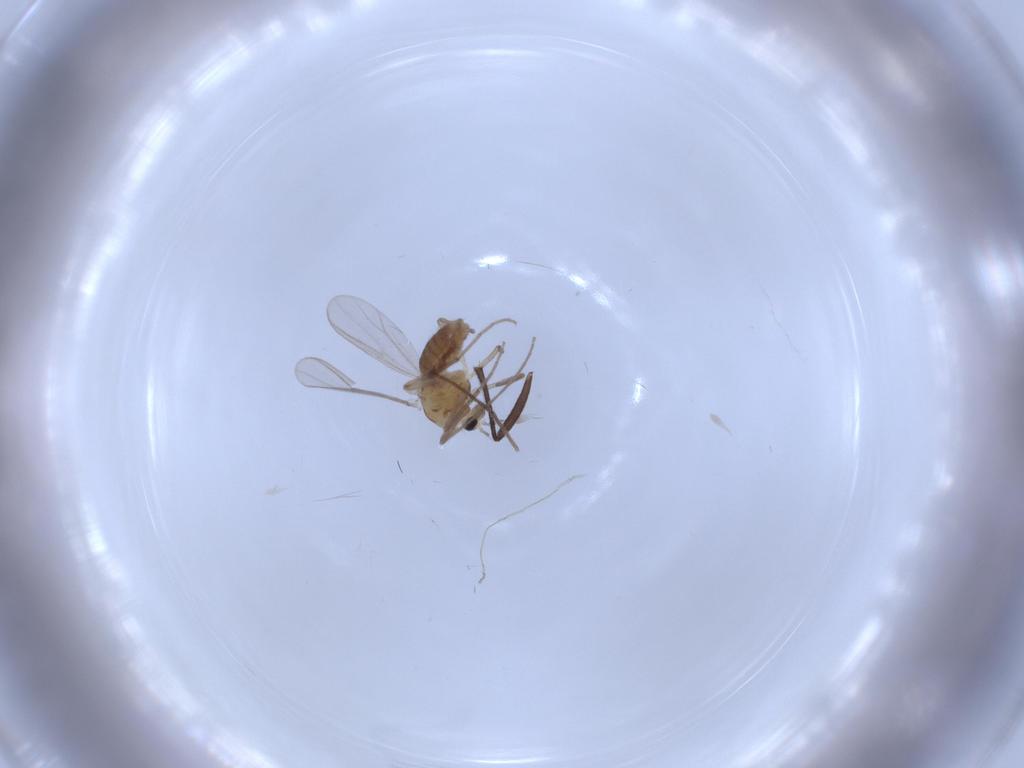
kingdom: Animalia
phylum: Arthropoda
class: Insecta
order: Diptera
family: Chironomidae
